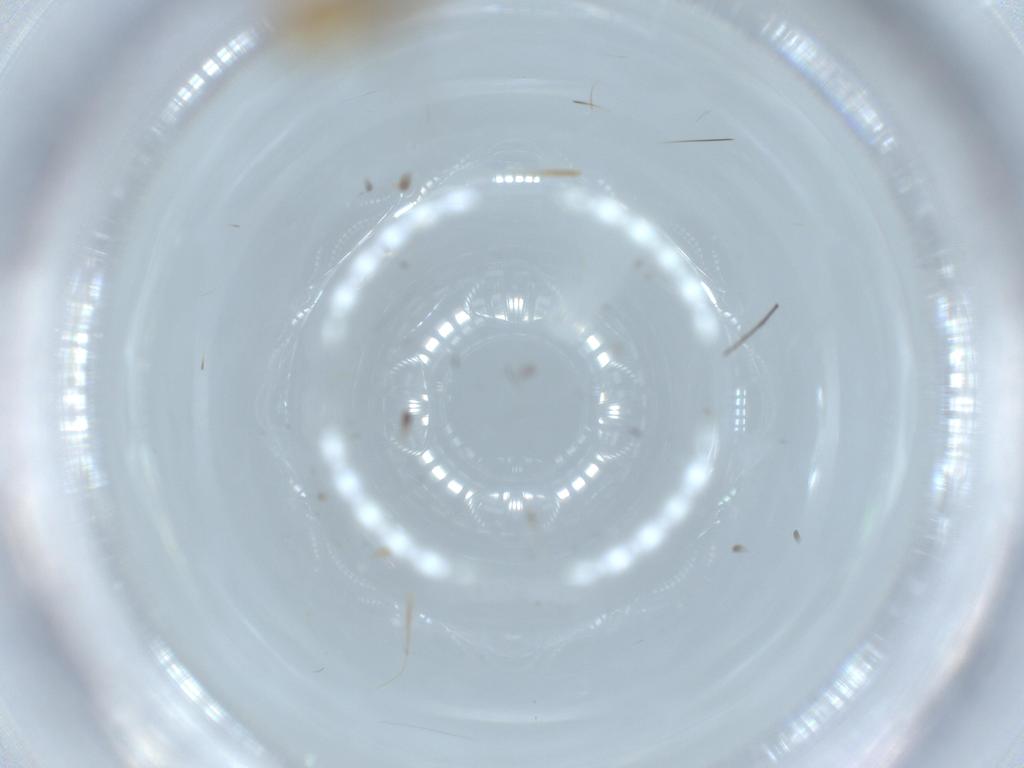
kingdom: Animalia
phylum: Arthropoda
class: Insecta
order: Diptera
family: Chironomidae
